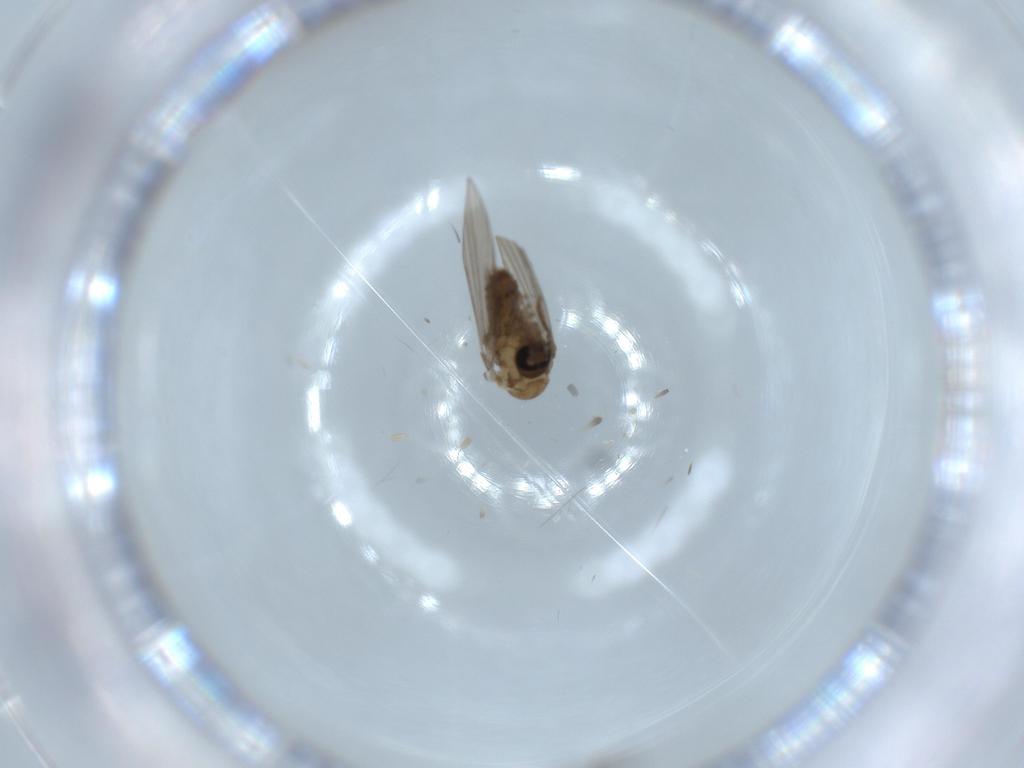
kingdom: Animalia
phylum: Arthropoda
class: Insecta
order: Diptera
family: Psychodidae
